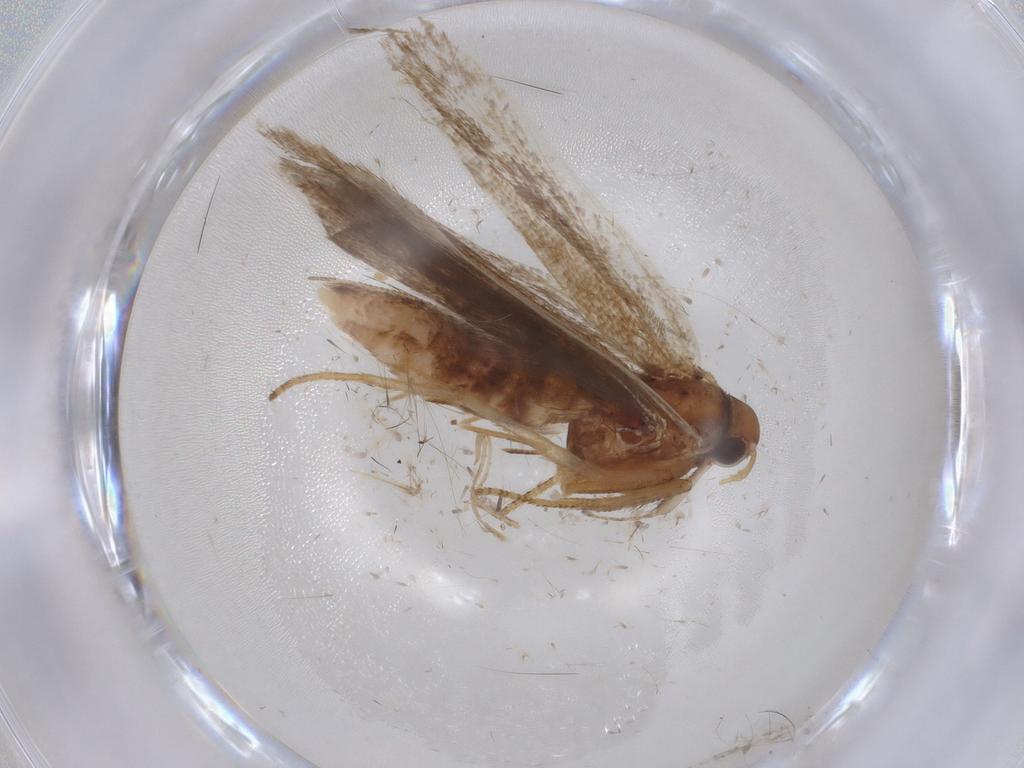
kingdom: Animalia
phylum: Arthropoda
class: Insecta
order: Lepidoptera
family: Gelechiidae
